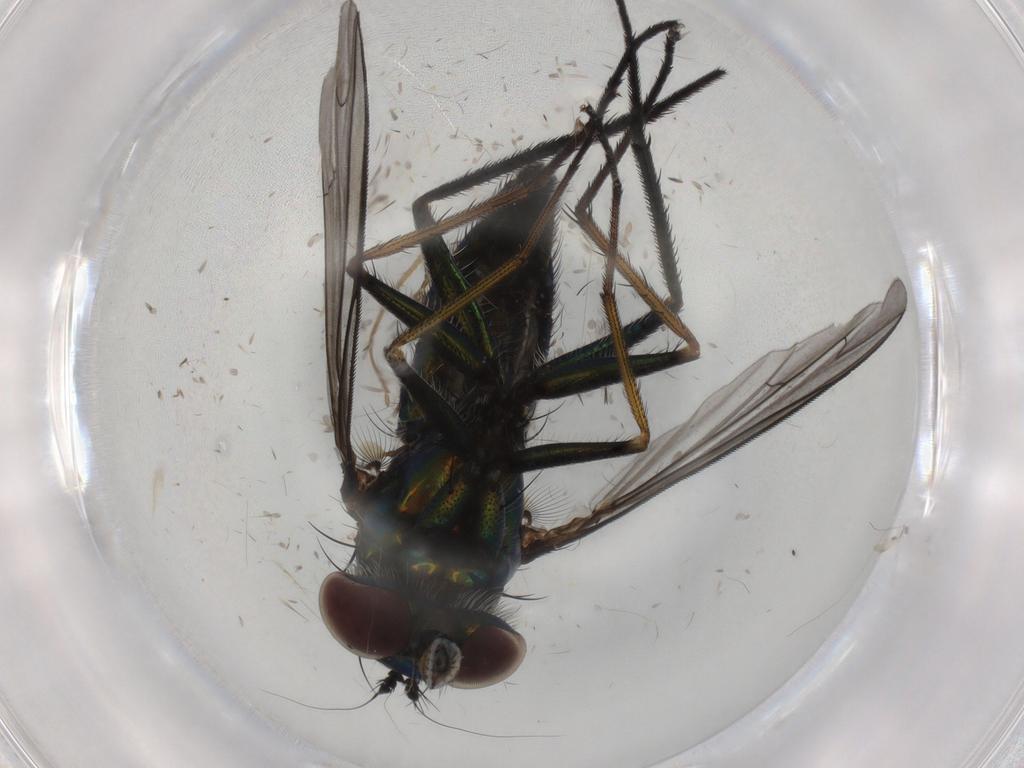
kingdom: Animalia
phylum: Arthropoda
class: Insecta
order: Diptera
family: Chloropidae
